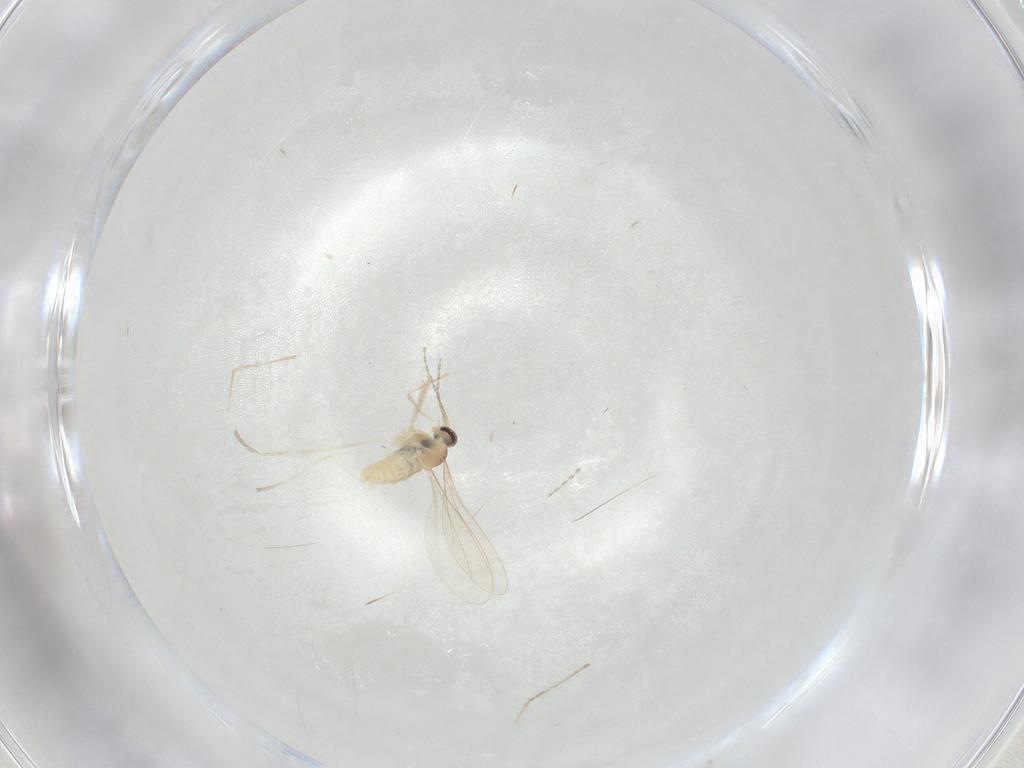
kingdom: Animalia
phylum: Arthropoda
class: Insecta
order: Diptera
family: Cecidomyiidae
